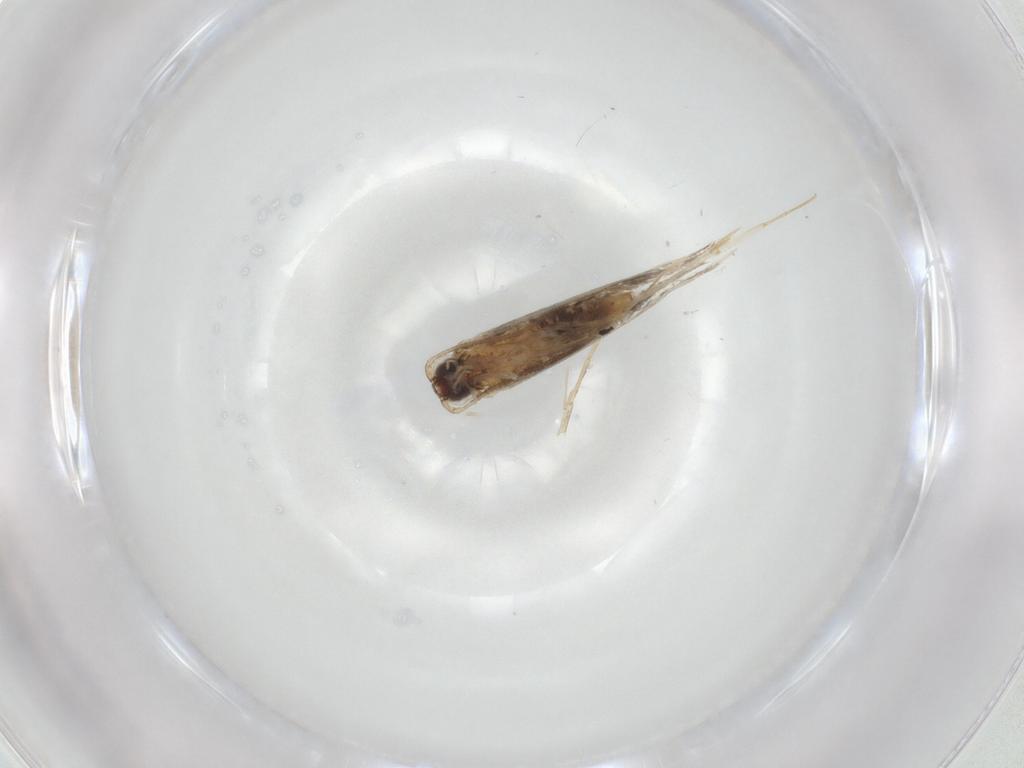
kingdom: Animalia
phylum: Arthropoda
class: Insecta
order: Lepidoptera
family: Tineidae
